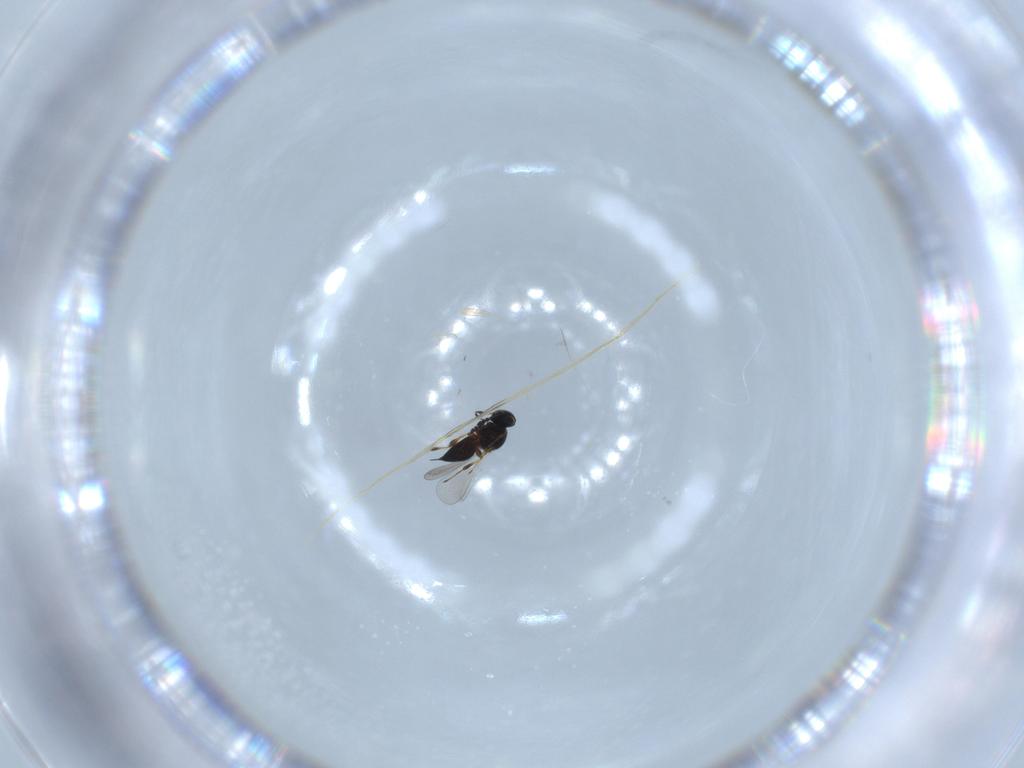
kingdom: Animalia
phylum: Arthropoda
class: Insecta
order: Hymenoptera
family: Platygastridae
